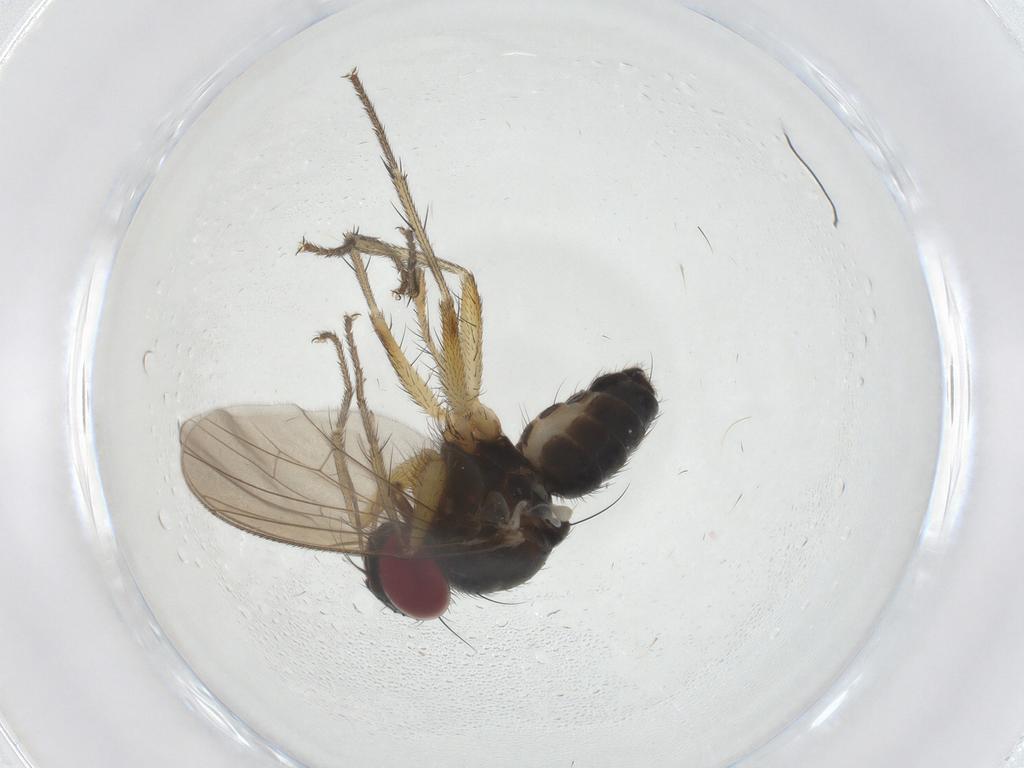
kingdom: Animalia
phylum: Arthropoda
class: Insecta
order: Diptera
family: Muscidae
